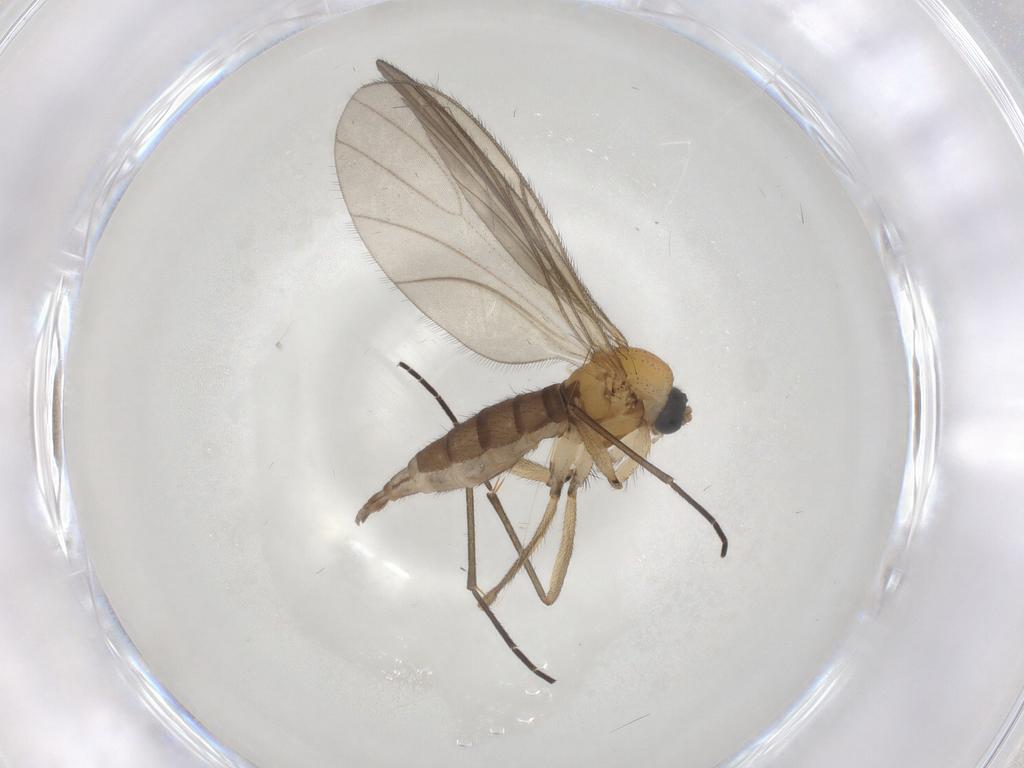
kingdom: Animalia
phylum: Arthropoda
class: Insecta
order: Diptera
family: Sciaridae
